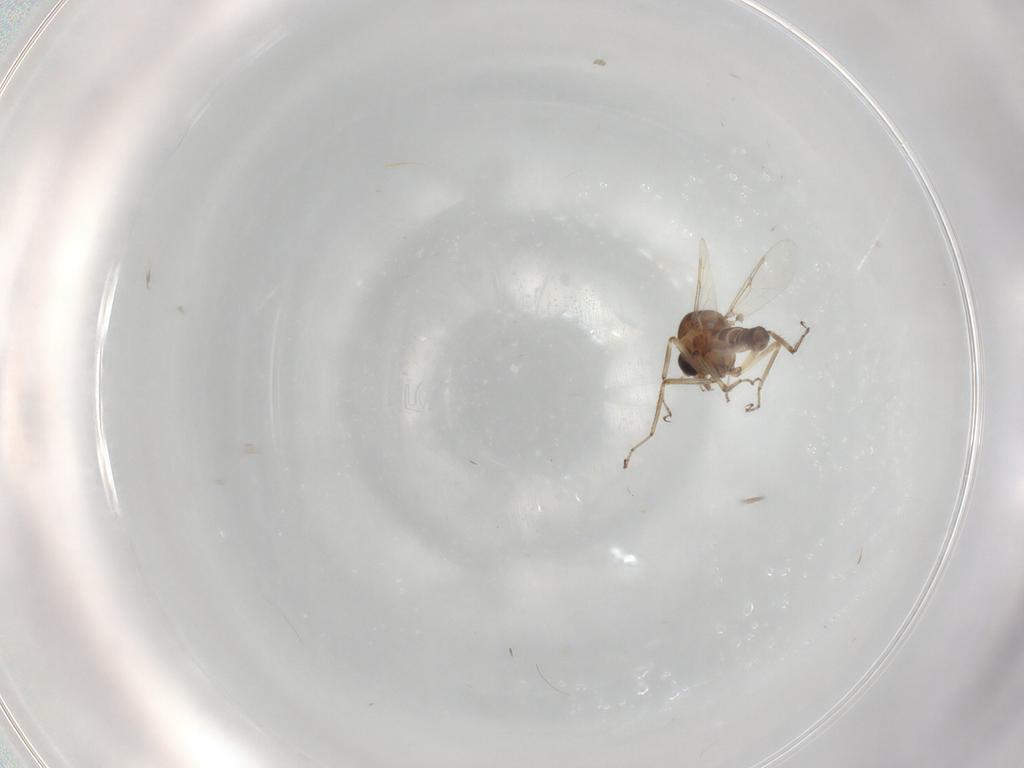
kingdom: Animalia
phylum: Arthropoda
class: Insecta
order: Diptera
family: Ceratopogonidae
